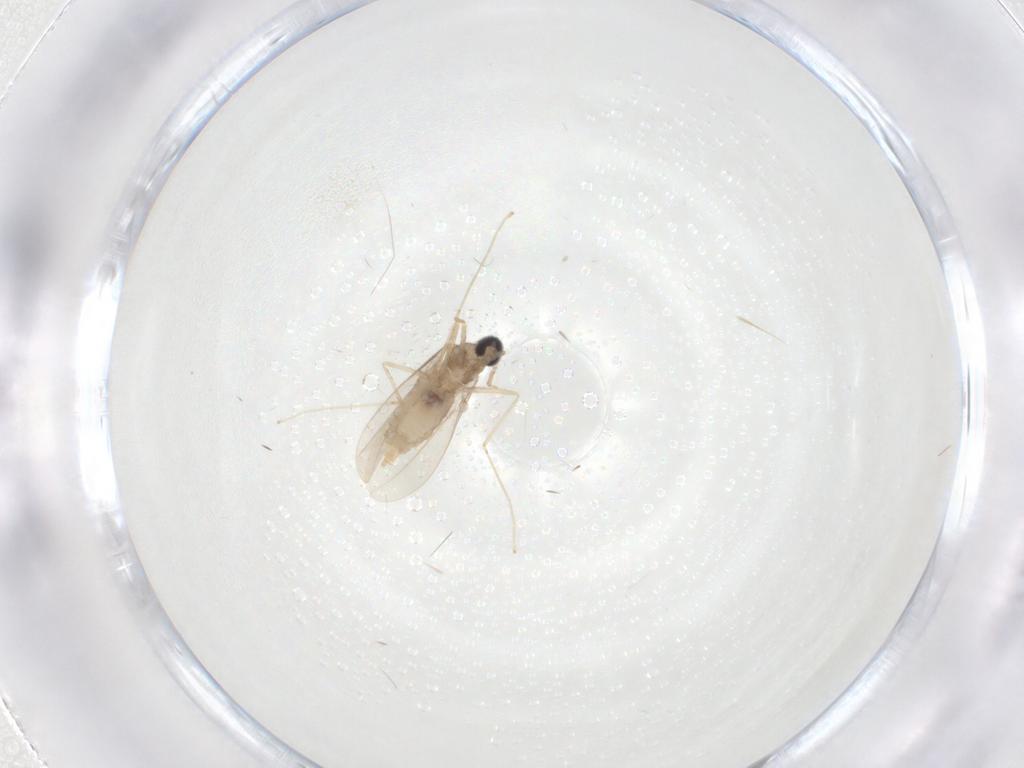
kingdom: Animalia
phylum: Arthropoda
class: Insecta
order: Diptera
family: Cecidomyiidae
